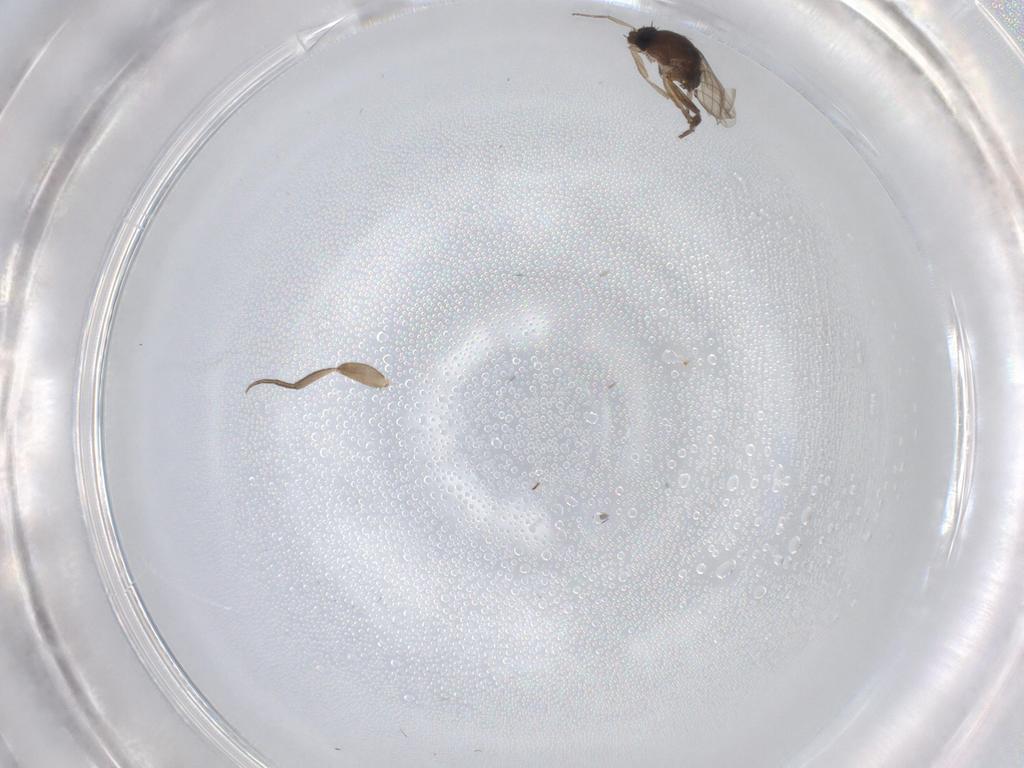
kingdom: Animalia
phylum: Arthropoda
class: Insecta
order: Diptera
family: Phoridae
